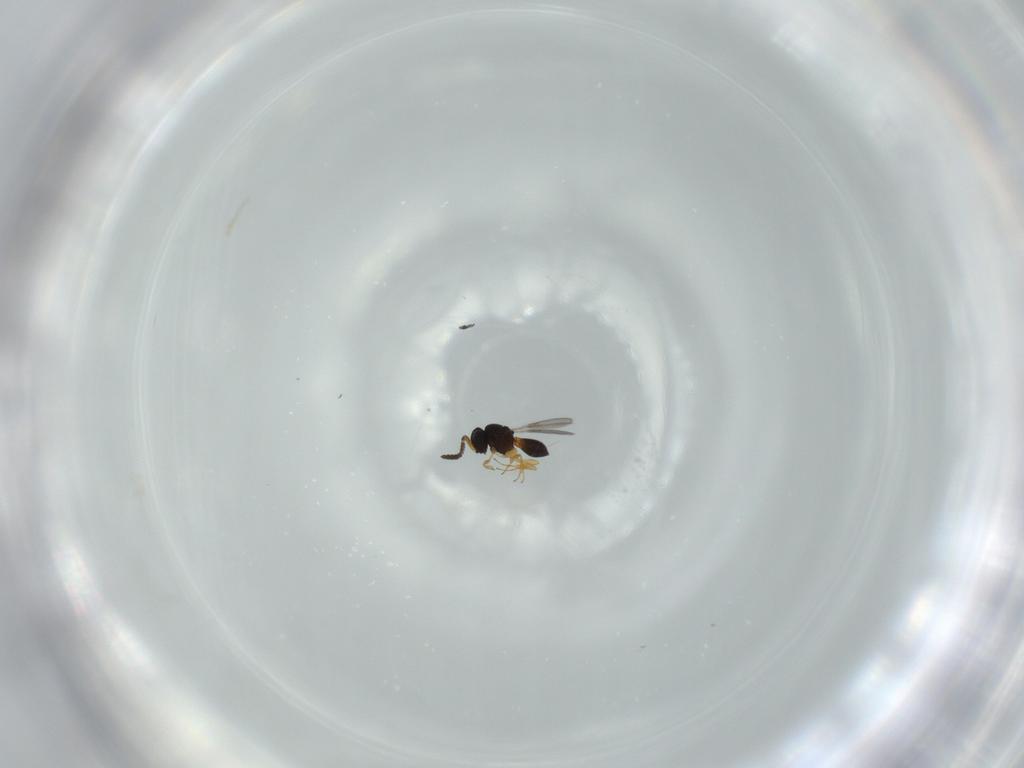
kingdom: Animalia
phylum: Arthropoda
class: Insecta
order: Hymenoptera
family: Scelionidae
